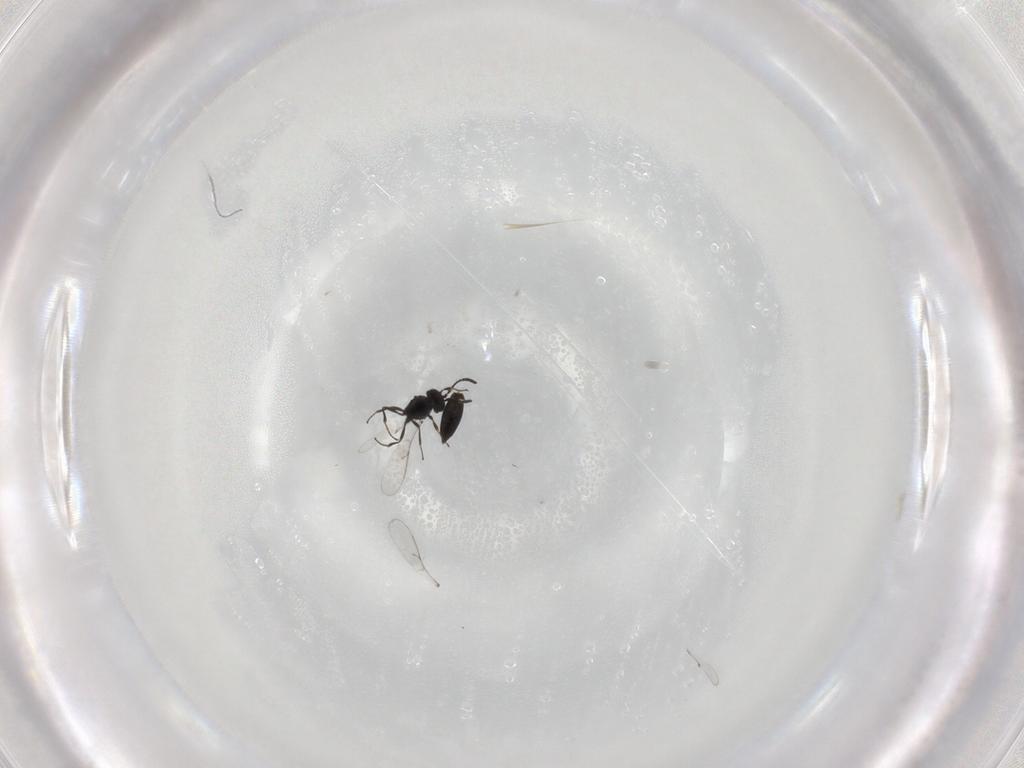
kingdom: Animalia
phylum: Arthropoda
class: Insecta
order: Hymenoptera
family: Scelionidae
